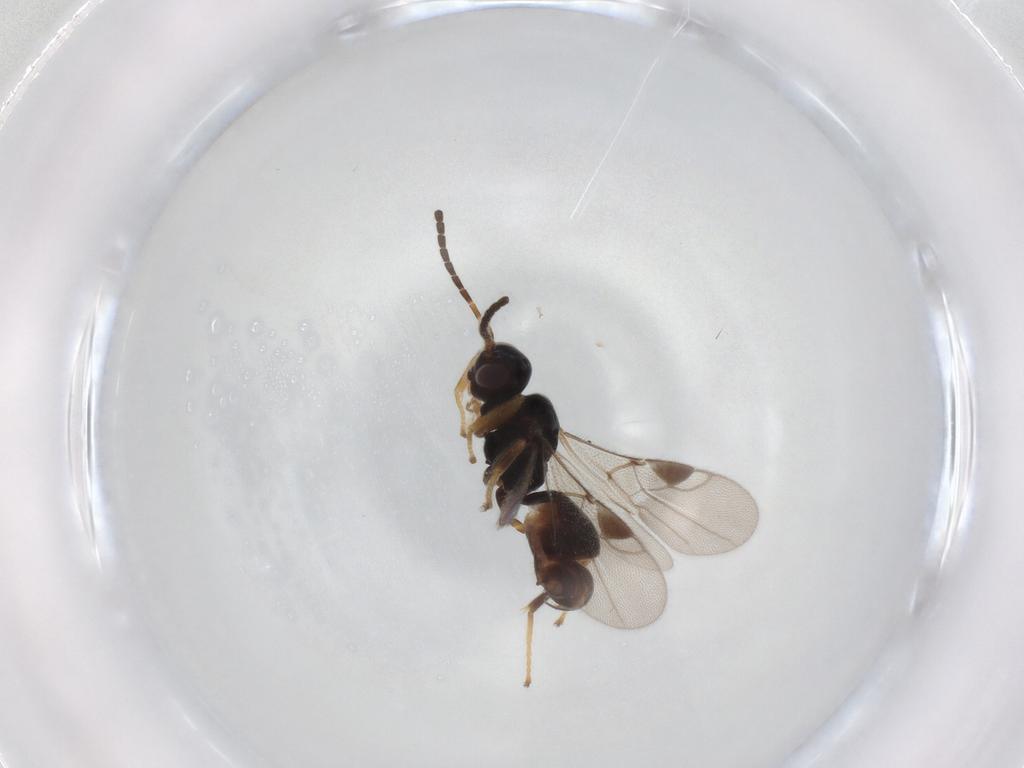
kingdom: Animalia
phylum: Arthropoda
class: Insecta
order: Hymenoptera
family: Braconidae
